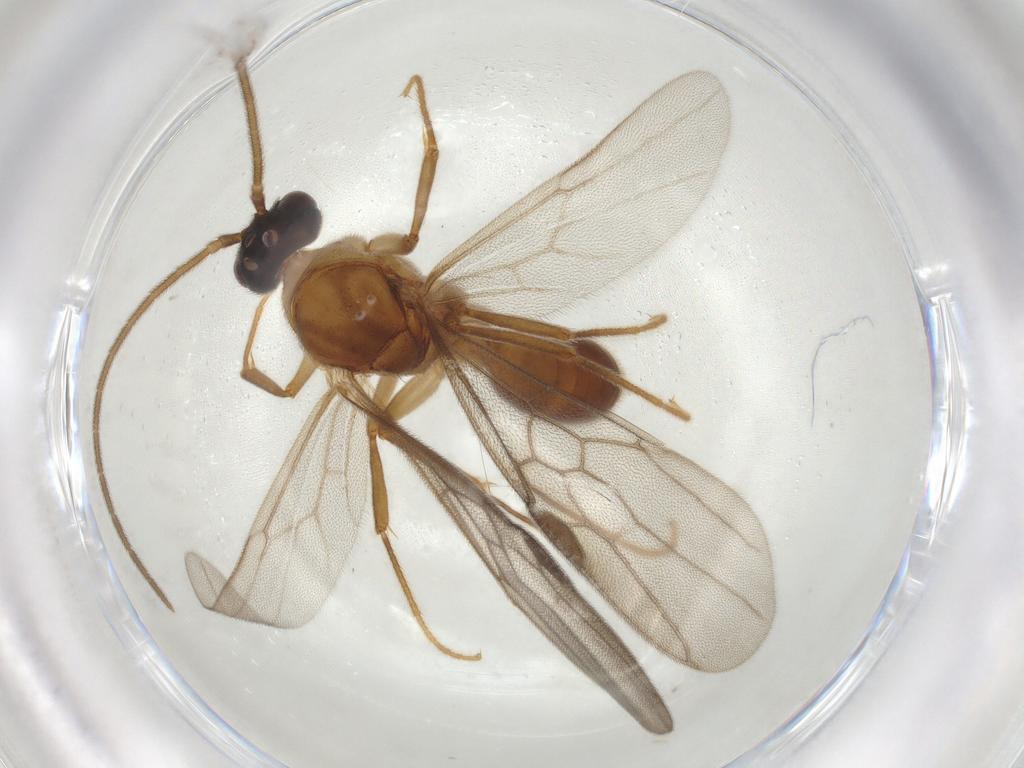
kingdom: Animalia
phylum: Arthropoda
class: Insecta
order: Hymenoptera
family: Formicidae
